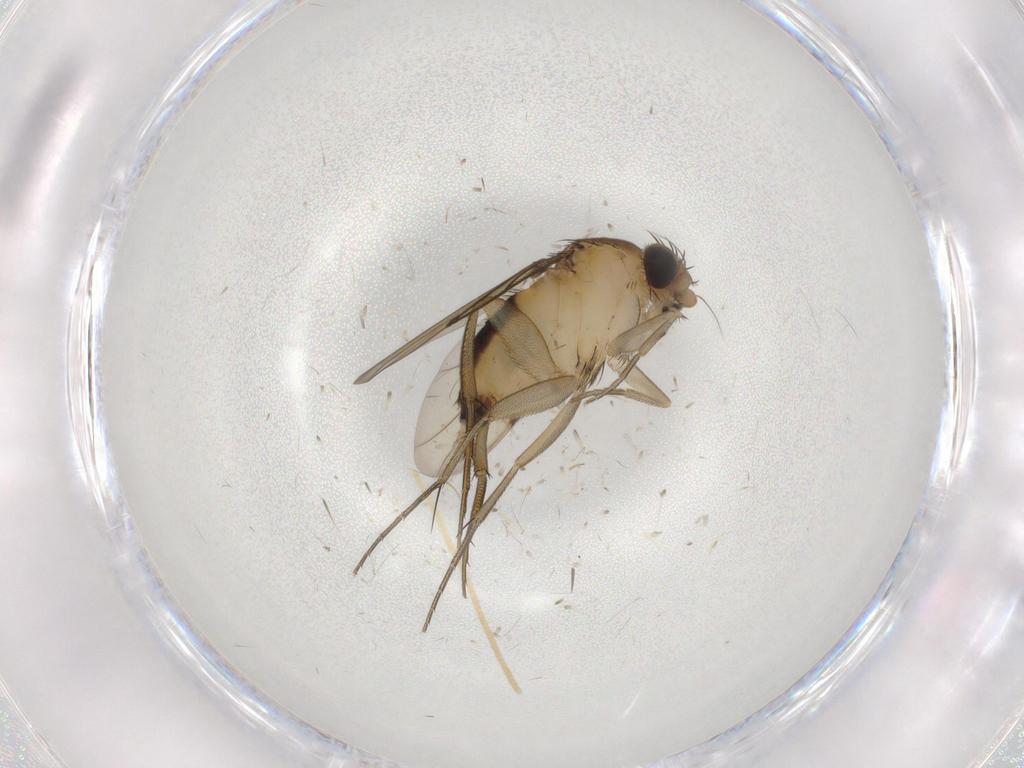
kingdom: Animalia
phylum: Arthropoda
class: Insecta
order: Diptera
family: Psychodidae
